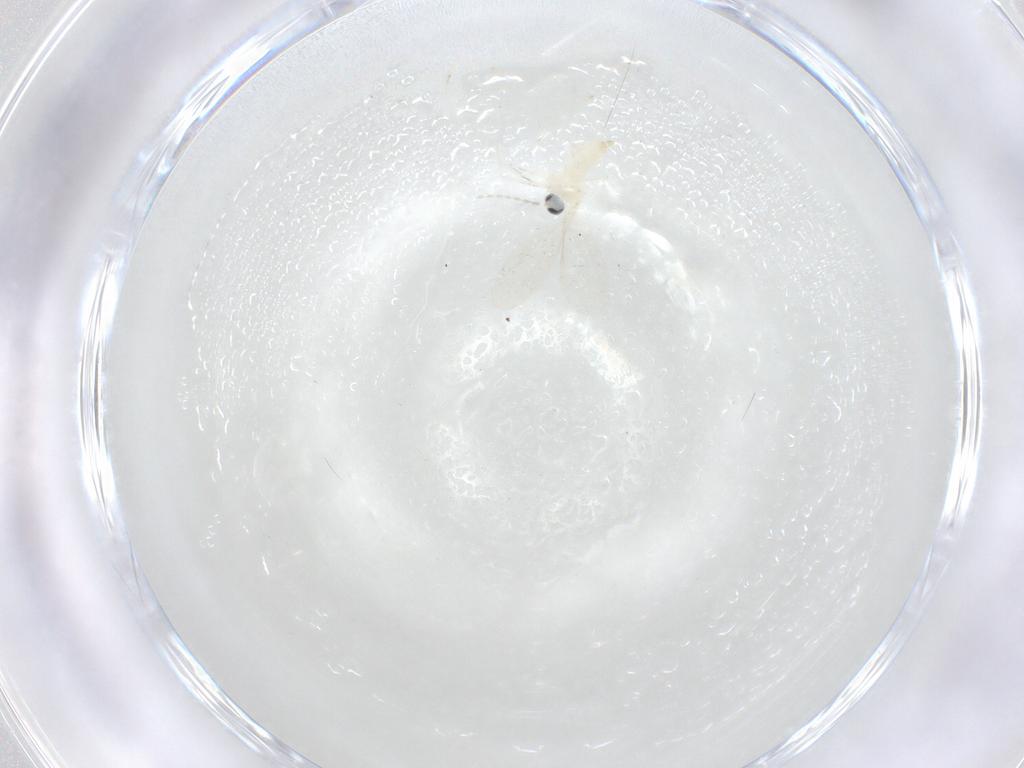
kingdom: Animalia
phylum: Arthropoda
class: Insecta
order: Diptera
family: Cecidomyiidae
